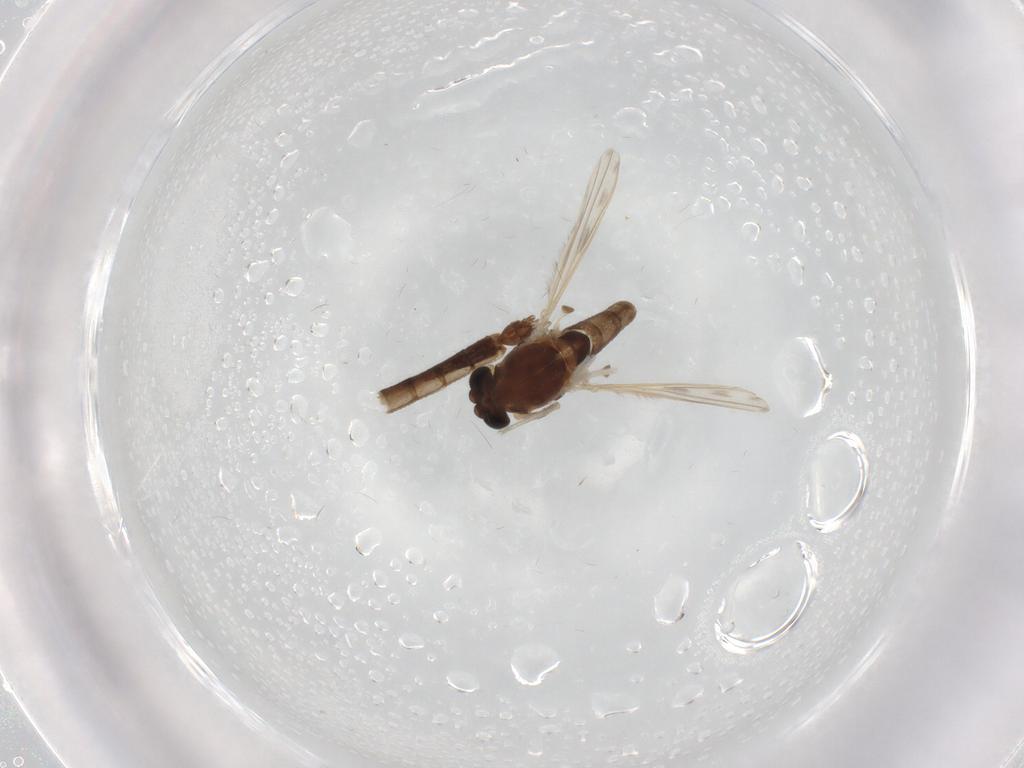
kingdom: Animalia
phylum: Arthropoda
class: Insecta
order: Diptera
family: Chironomidae
